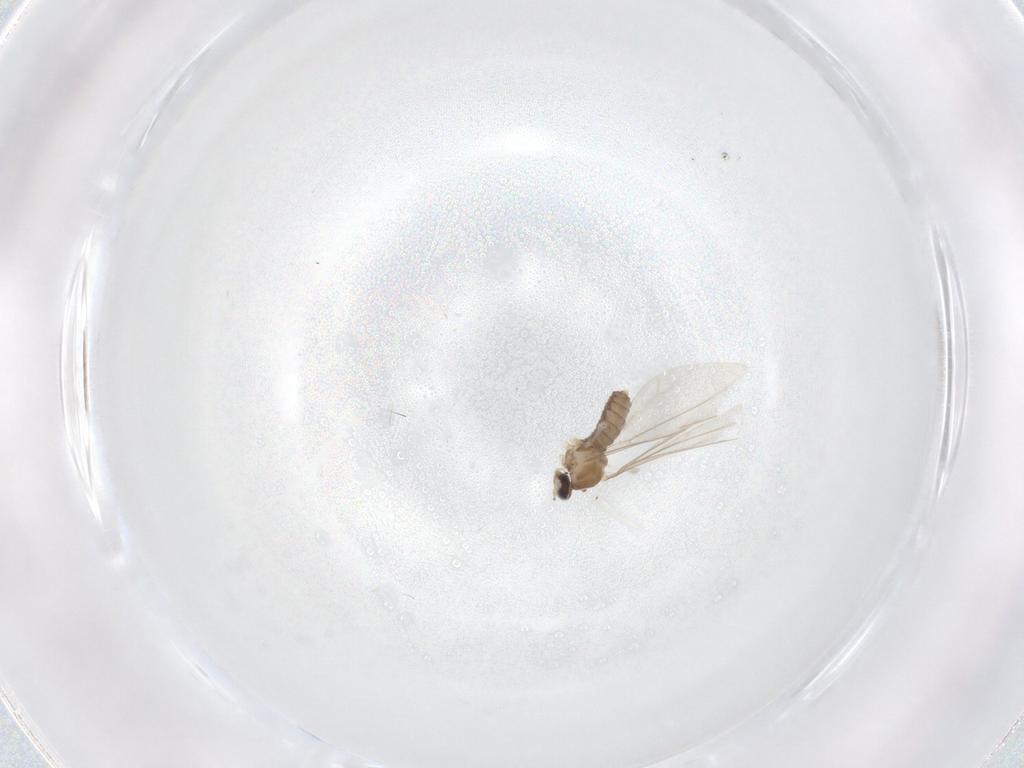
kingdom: Animalia
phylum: Arthropoda
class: Insecta
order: Diptera
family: Cecidomyiidae
